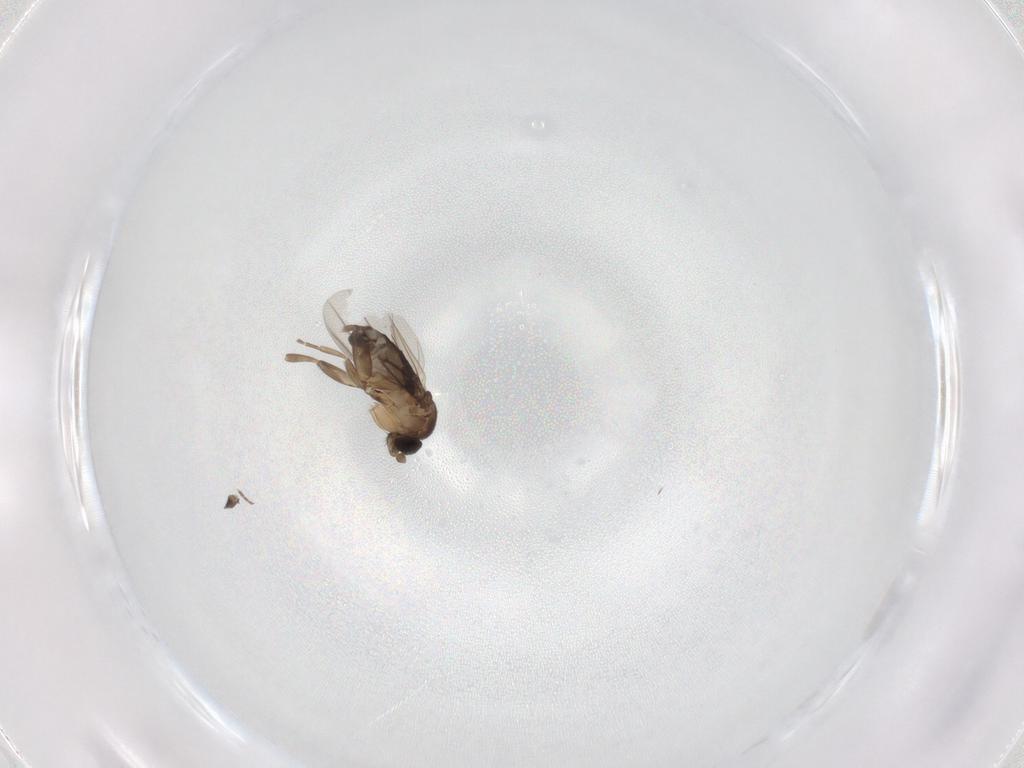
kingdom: Animalia
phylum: Arthropoda
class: Insecta
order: Diptera
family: Phoridae
